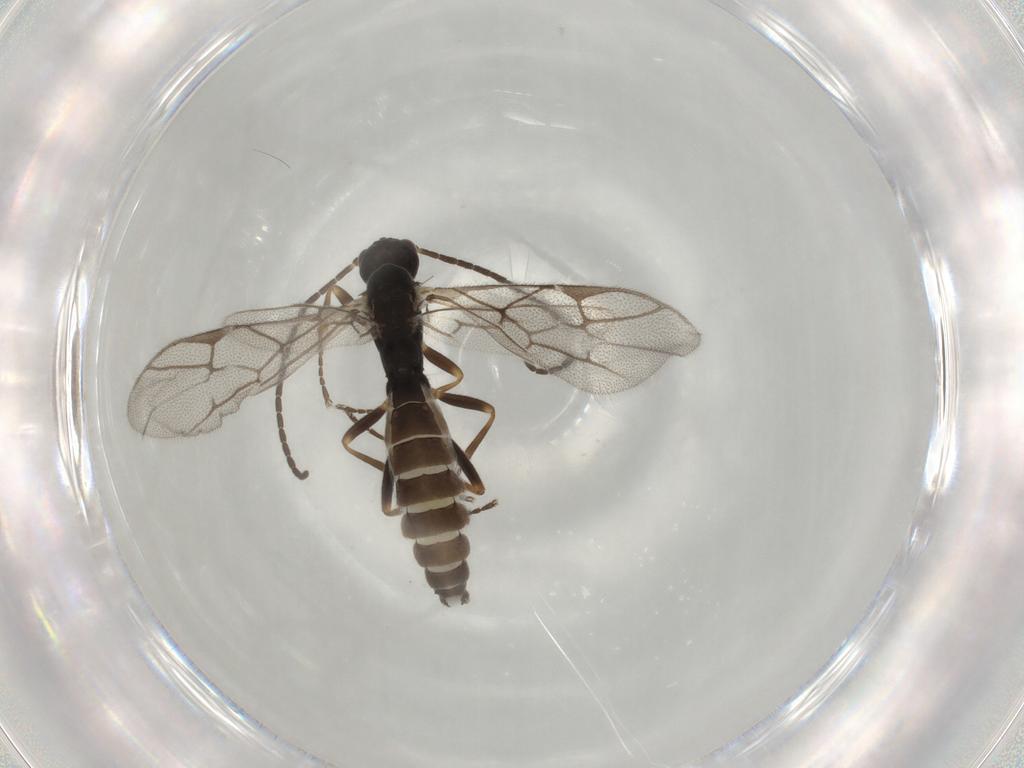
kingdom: Animalia
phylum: Arthropoda
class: Insecta
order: Hymenoptera
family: Ichneumonidae
